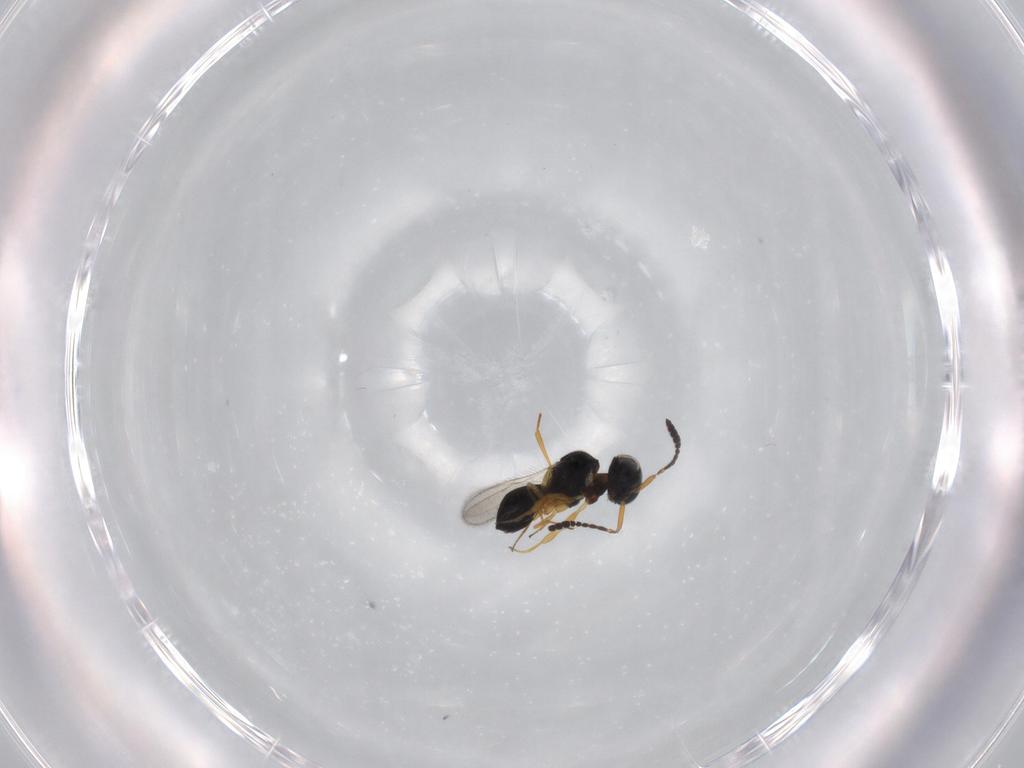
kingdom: Animalia
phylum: Arthropoda
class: Insecta
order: Hymenoptera
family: Scelionidae
